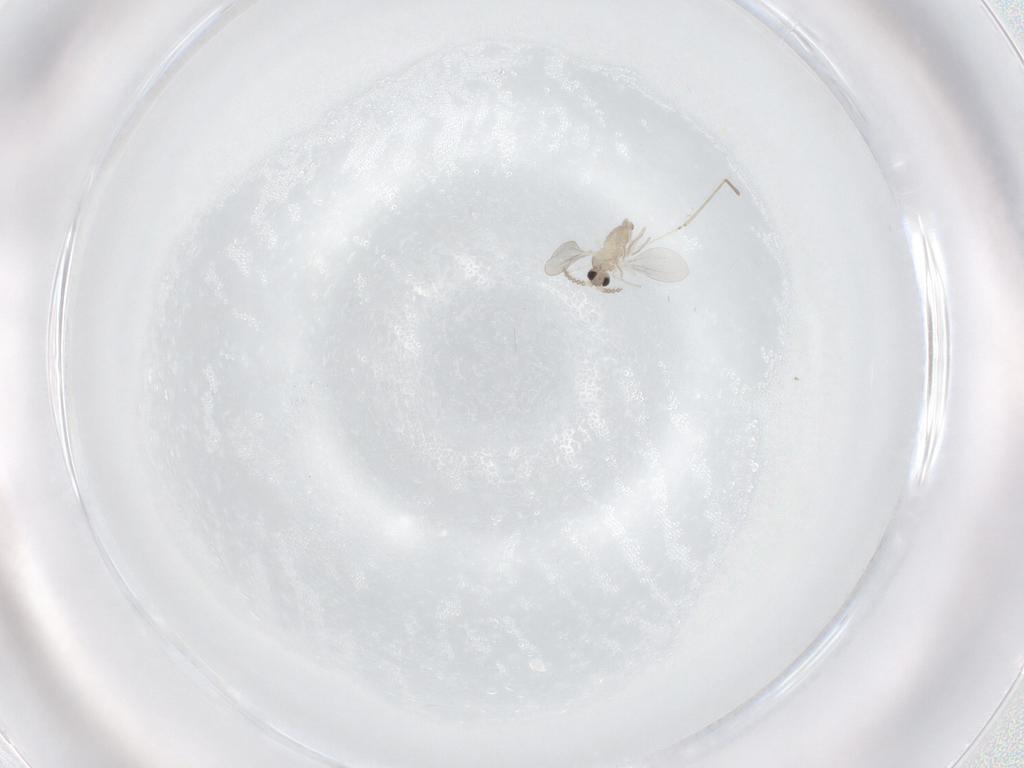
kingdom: Animalia
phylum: Arthropoda
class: Insecta
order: Diptera
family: Cecidomyiidae
